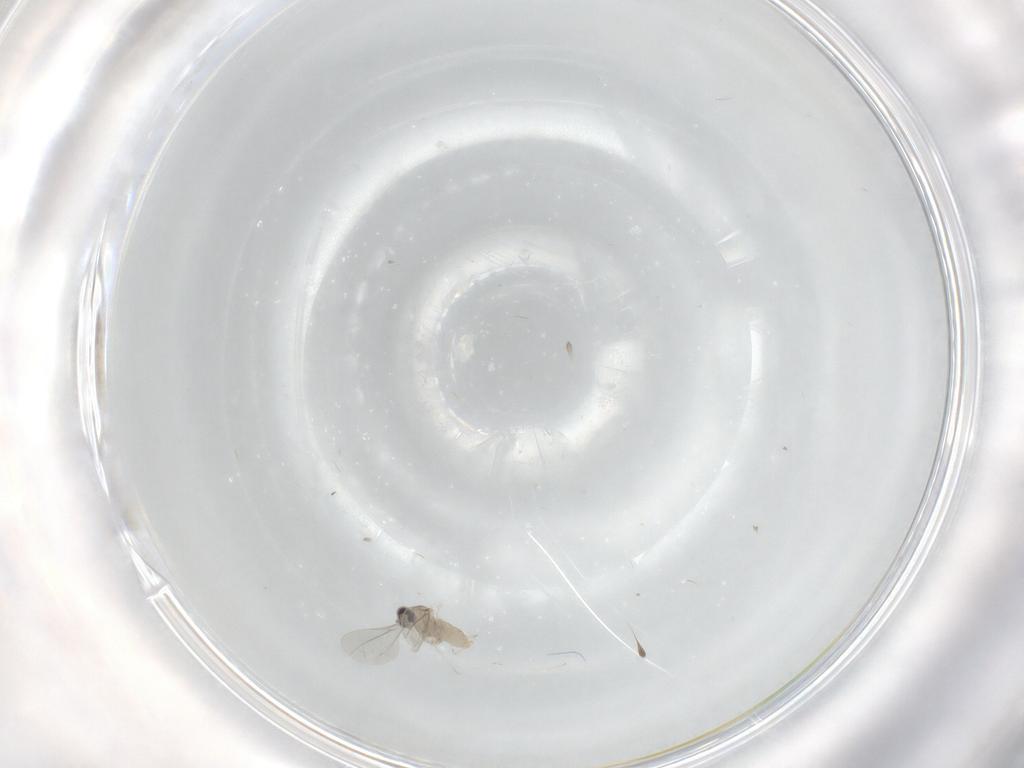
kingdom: Animalia
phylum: Arthropoda
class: Insecta
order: Diptera
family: Cecidomyiidae
